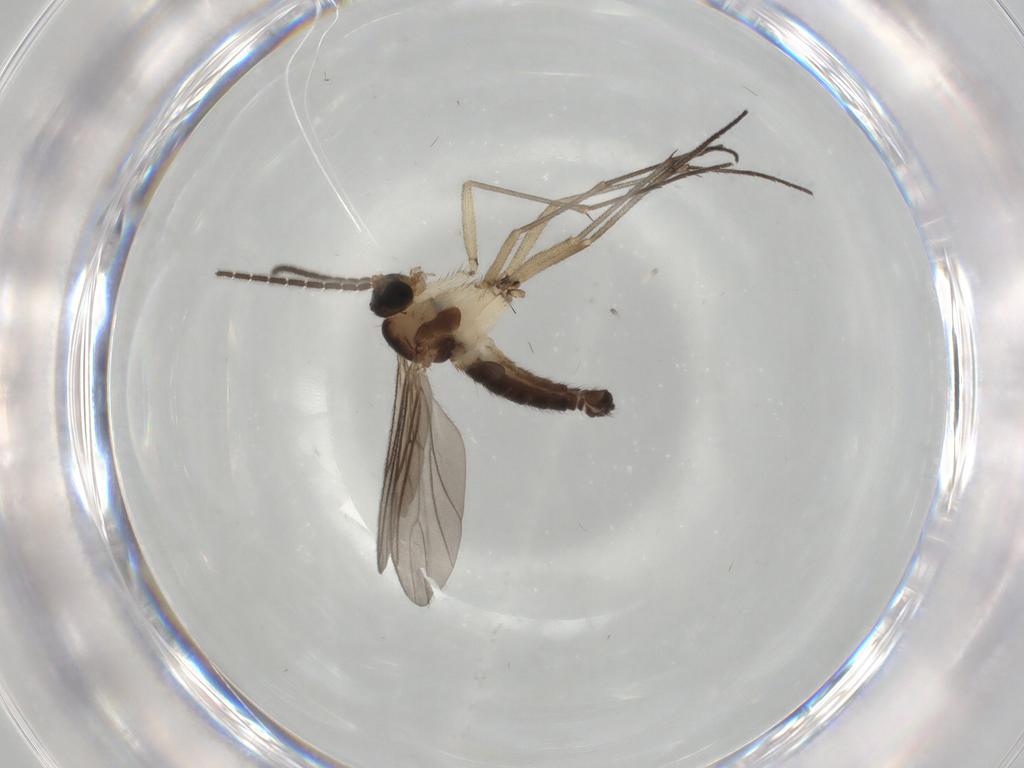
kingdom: Animalia
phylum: Arthropoda
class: Insecta
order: Diptera
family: Sciaridae
